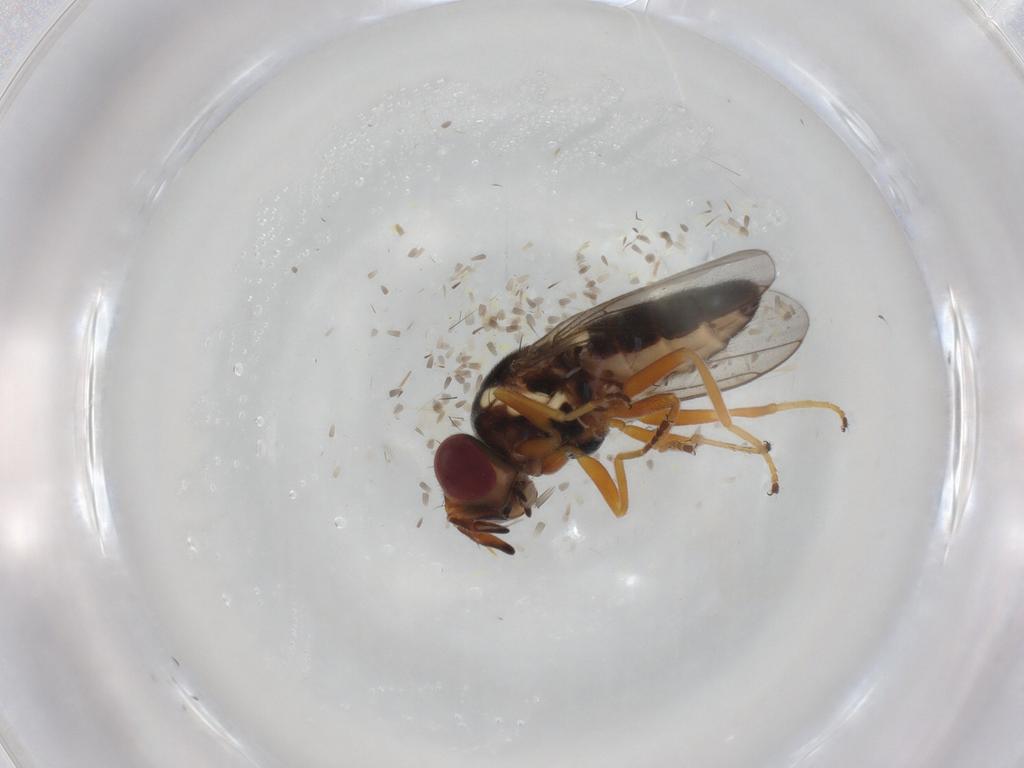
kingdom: Animalia
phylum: Arthropoda
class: Insecta
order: Diptera
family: Chloropidae
